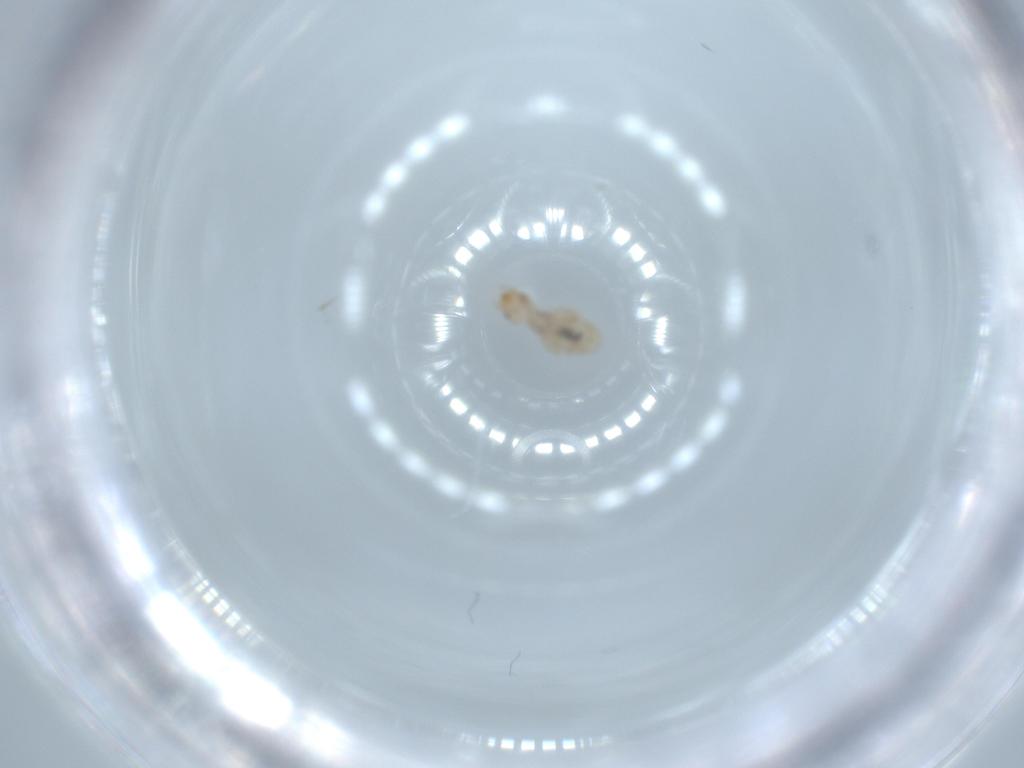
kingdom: Animalia
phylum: Arthropoda
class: Insecta
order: Psocodea
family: Liposcelididae
